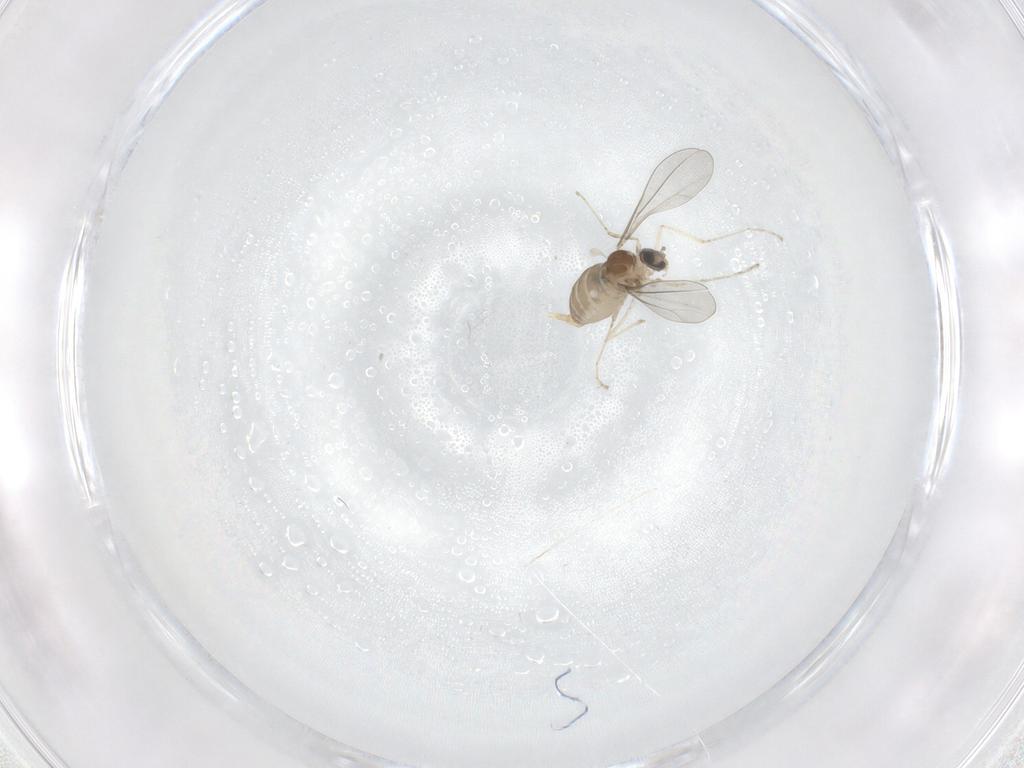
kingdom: Animalia
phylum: Arthropoda
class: Insecta
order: Diptera
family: Cecidomyiidae
